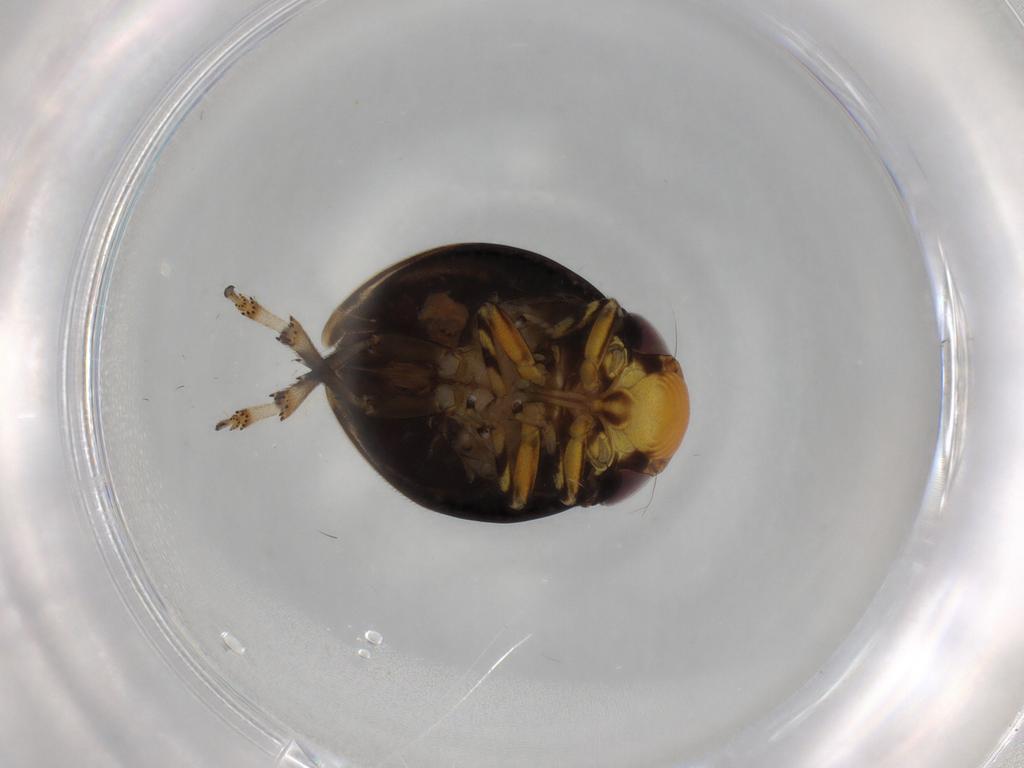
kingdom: Animalia
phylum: Arthropoda
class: Insecta
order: Hemiptera
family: Clastopteridae
